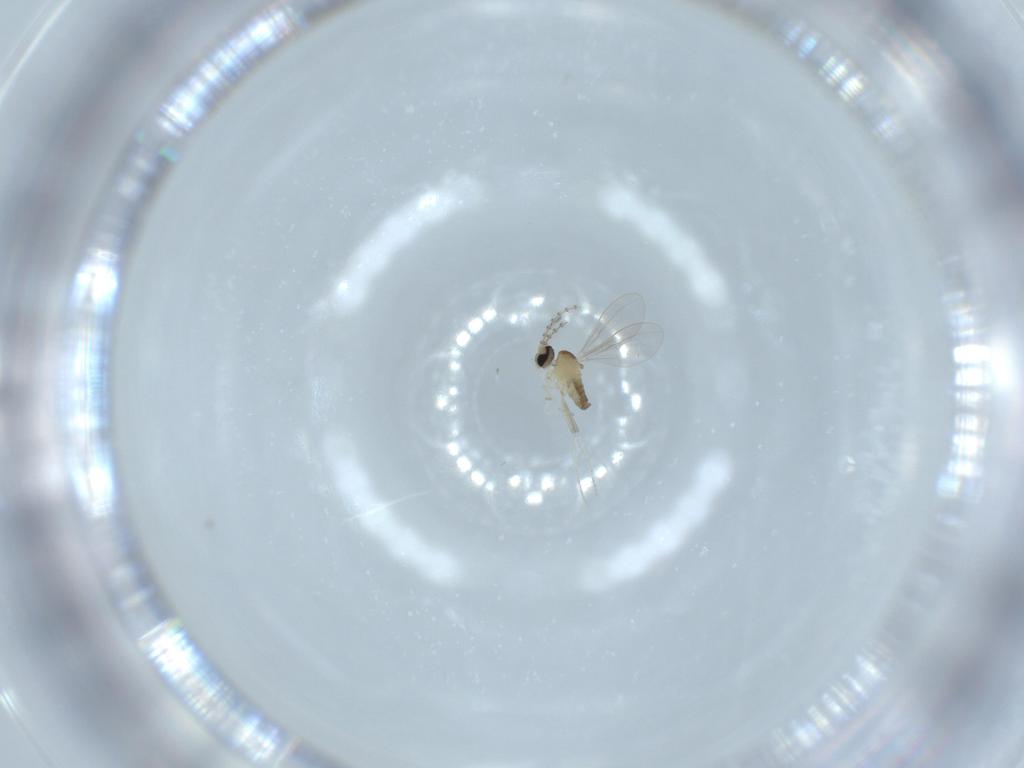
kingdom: Animalia
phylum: Arthropoda
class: Insecta
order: Diptera
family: Cecidomyiidae
